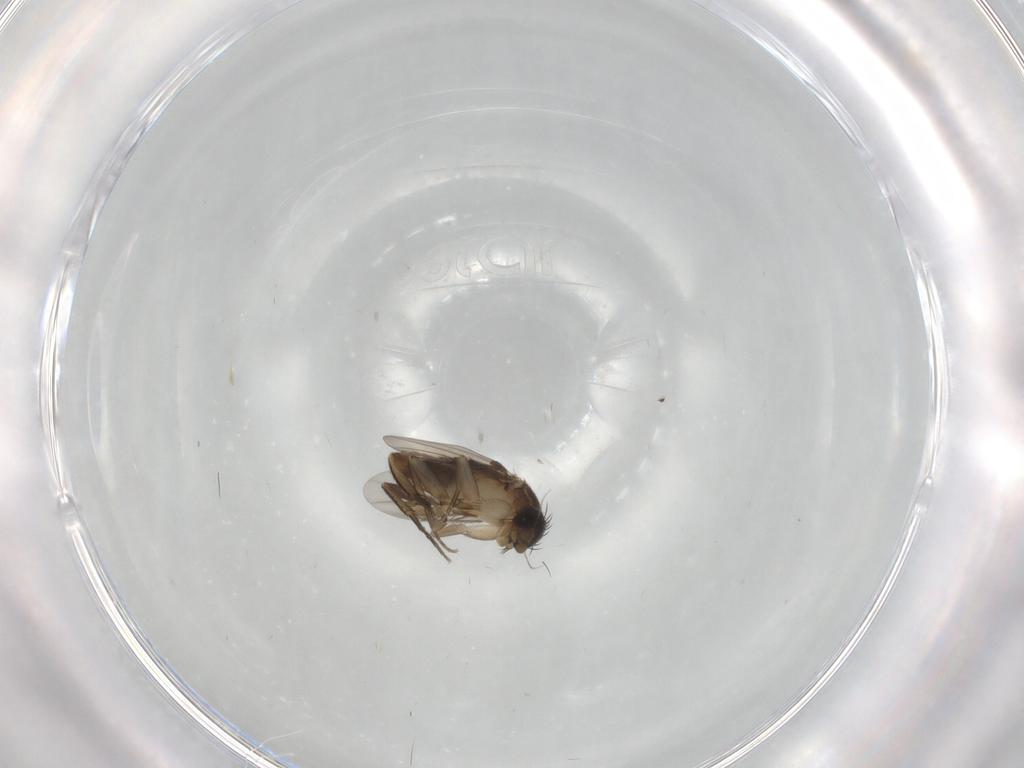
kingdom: Animalia
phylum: Arthropoda
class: Insecta
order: Diptera
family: Phoridae
